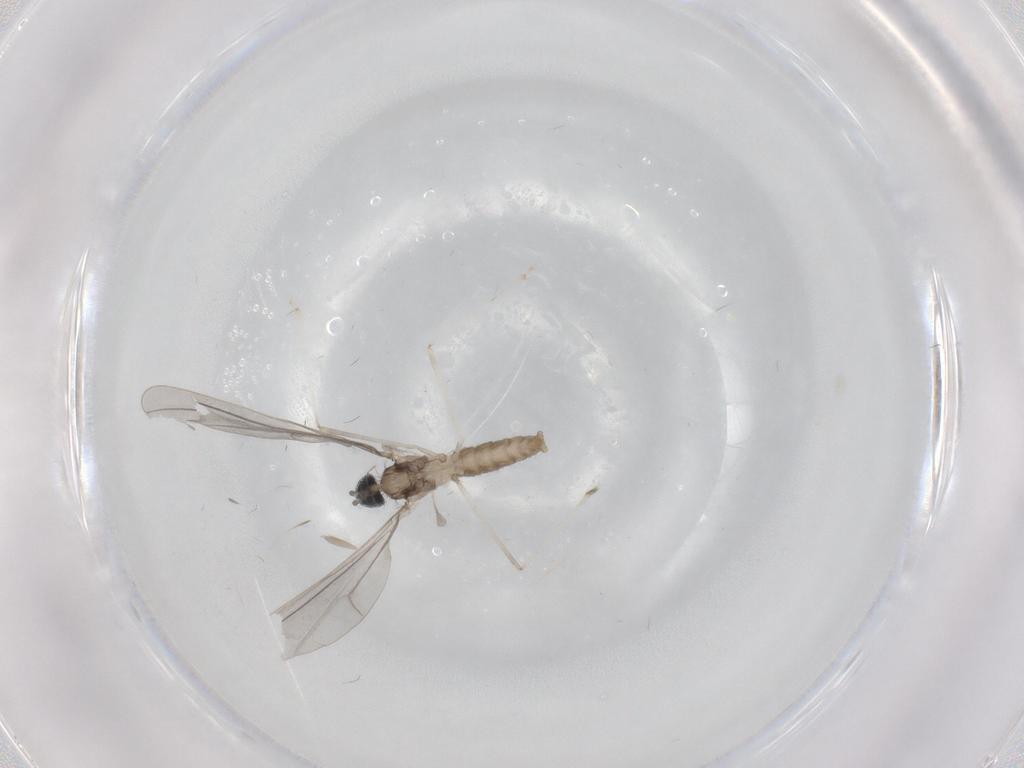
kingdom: Animalia
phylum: Arthropoda
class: Insecta
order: Diptera
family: Cecidomyiidae
